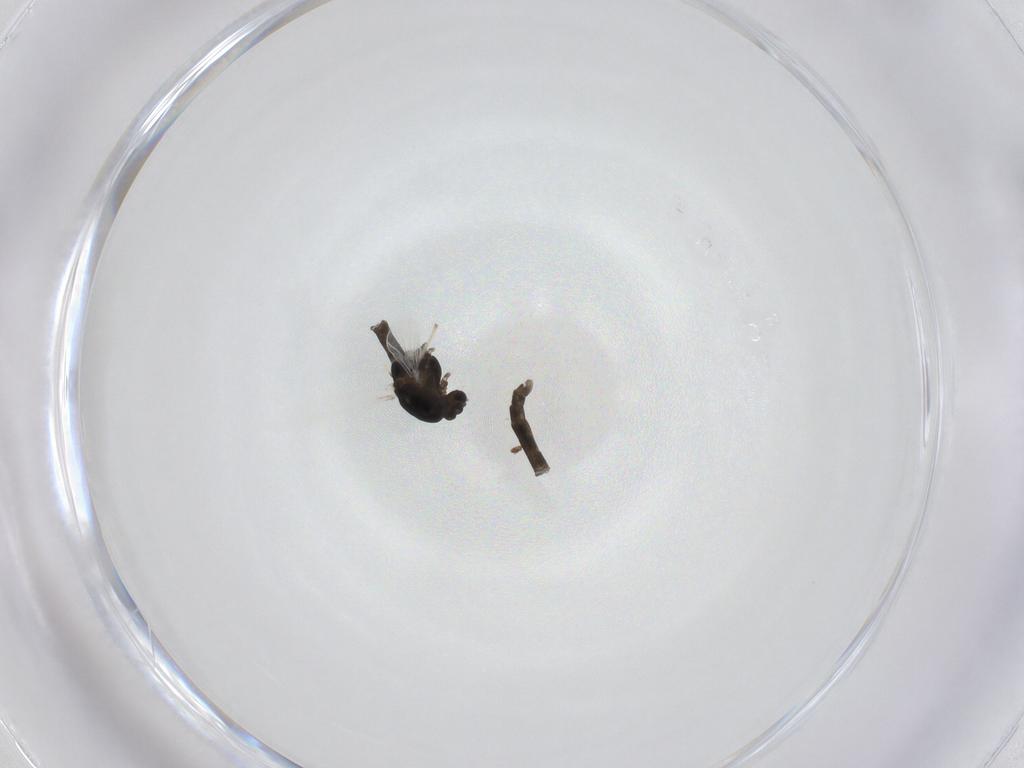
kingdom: Animalia
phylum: Arthropoda
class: Insecta
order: Diptera
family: Chironomidae
